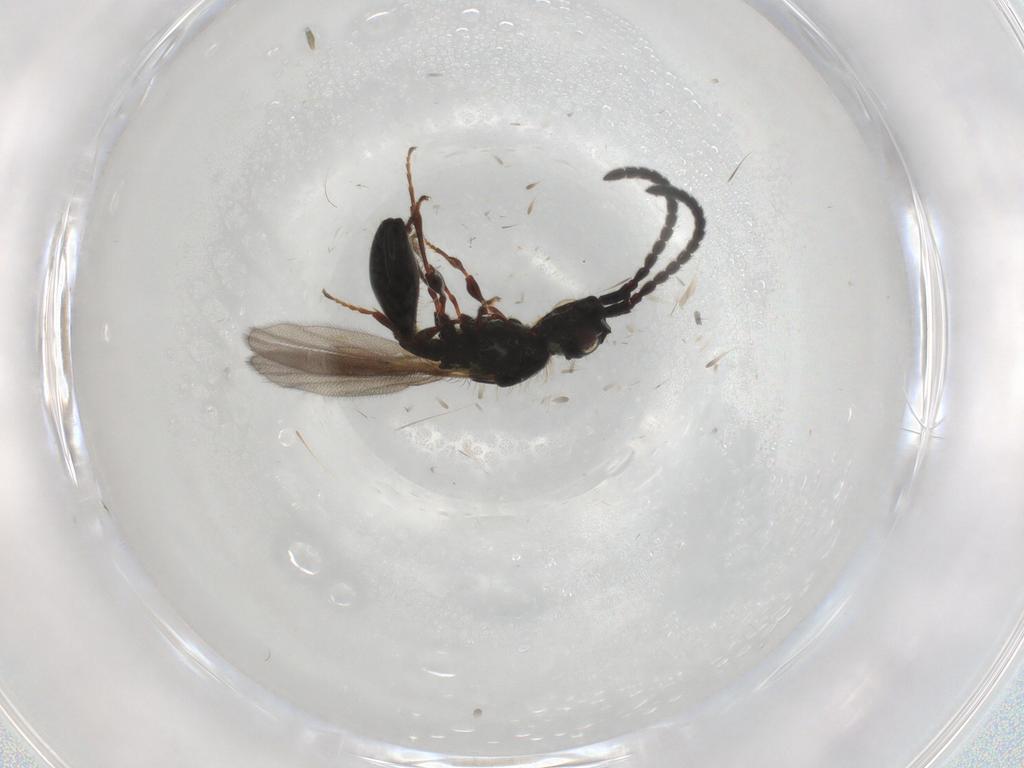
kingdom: Animalia
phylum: Arthropoda
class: Insecta
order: Hymenoptera
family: Diapriidae
